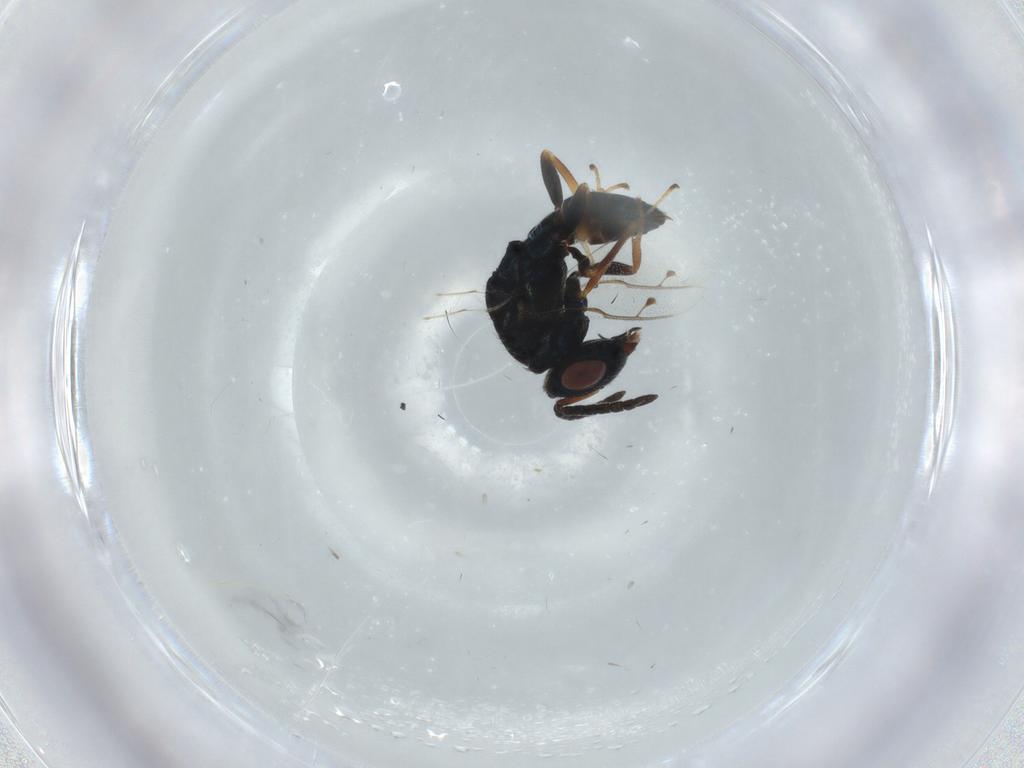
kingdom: Animalia
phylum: Arthropoda
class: Insecta
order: Hymenoptera
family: Pteromalidae
